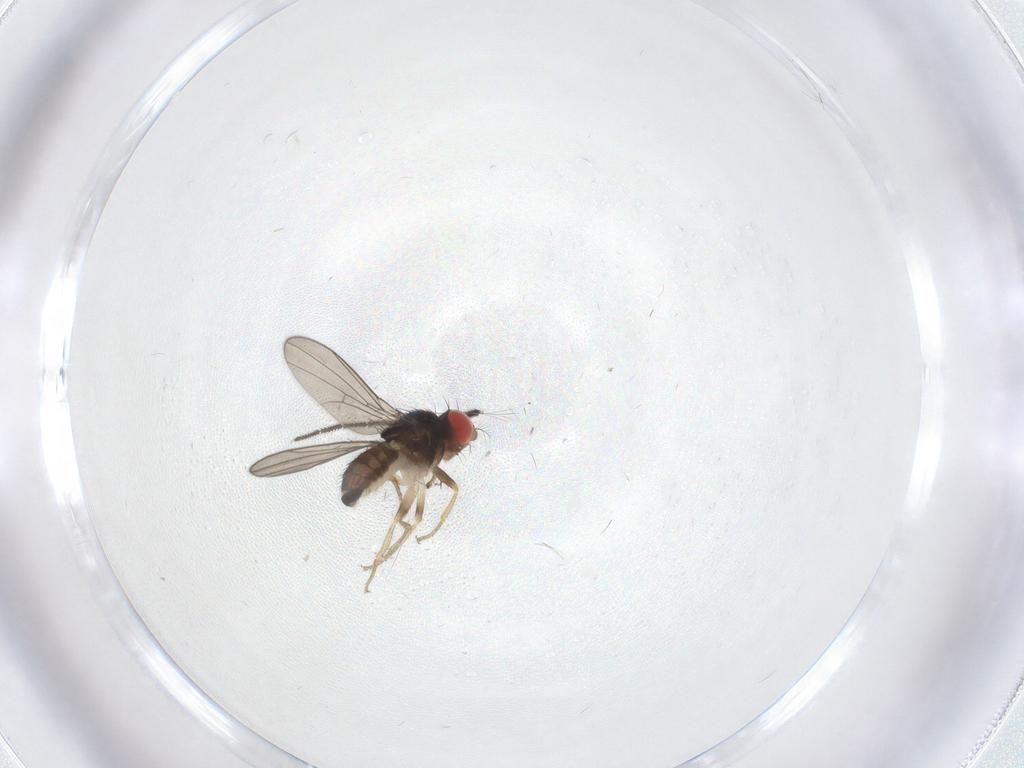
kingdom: Animalia
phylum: Arthropoda
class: Insecta
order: Diptera
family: Drosophilidae
